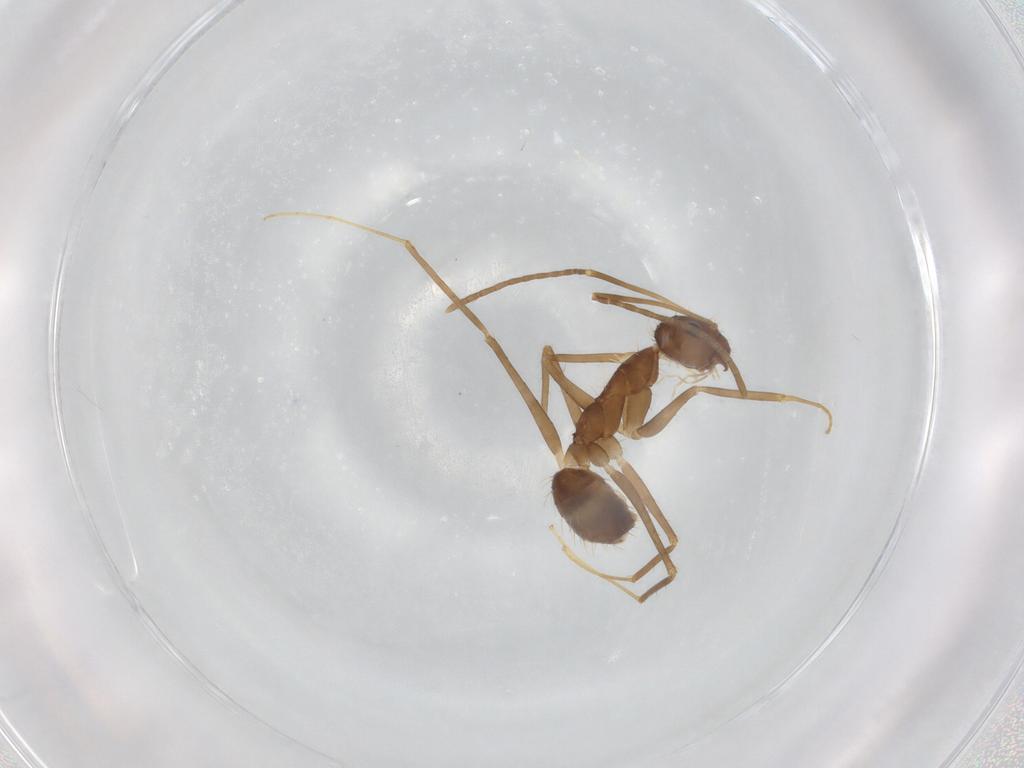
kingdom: Animalia
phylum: Arthropoda
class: Insecta
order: Hymenoptera
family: Formicidae
